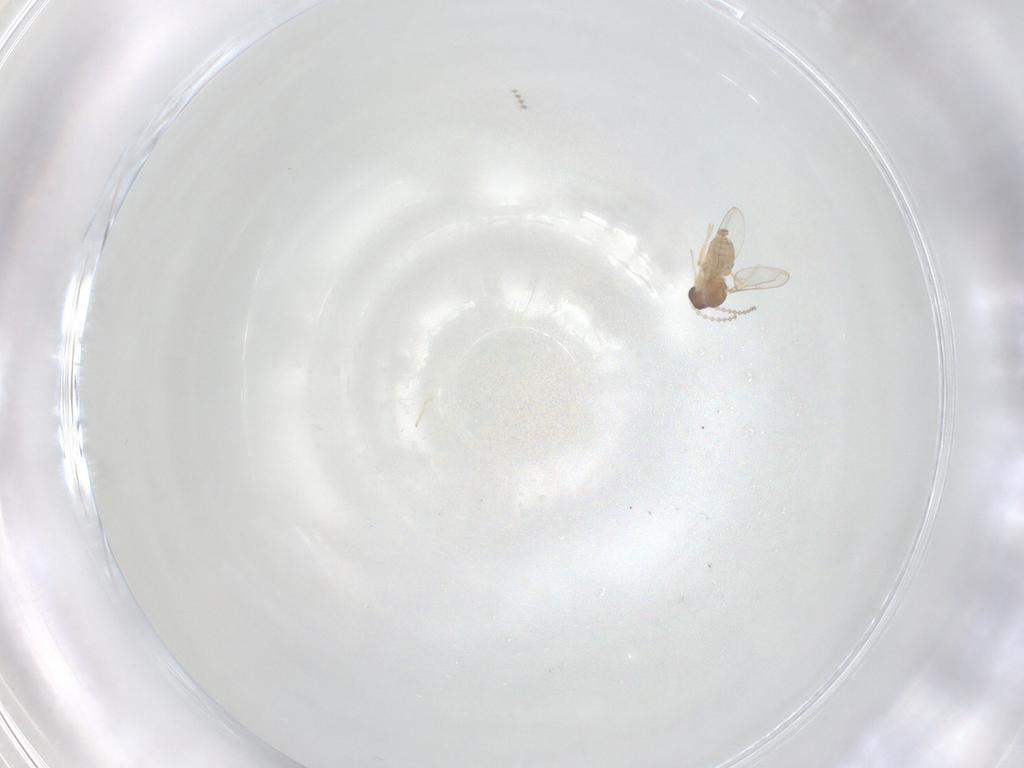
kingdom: Animalia
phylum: Arthropoda
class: Insecta
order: Diptera
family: Cecidomyiidae
